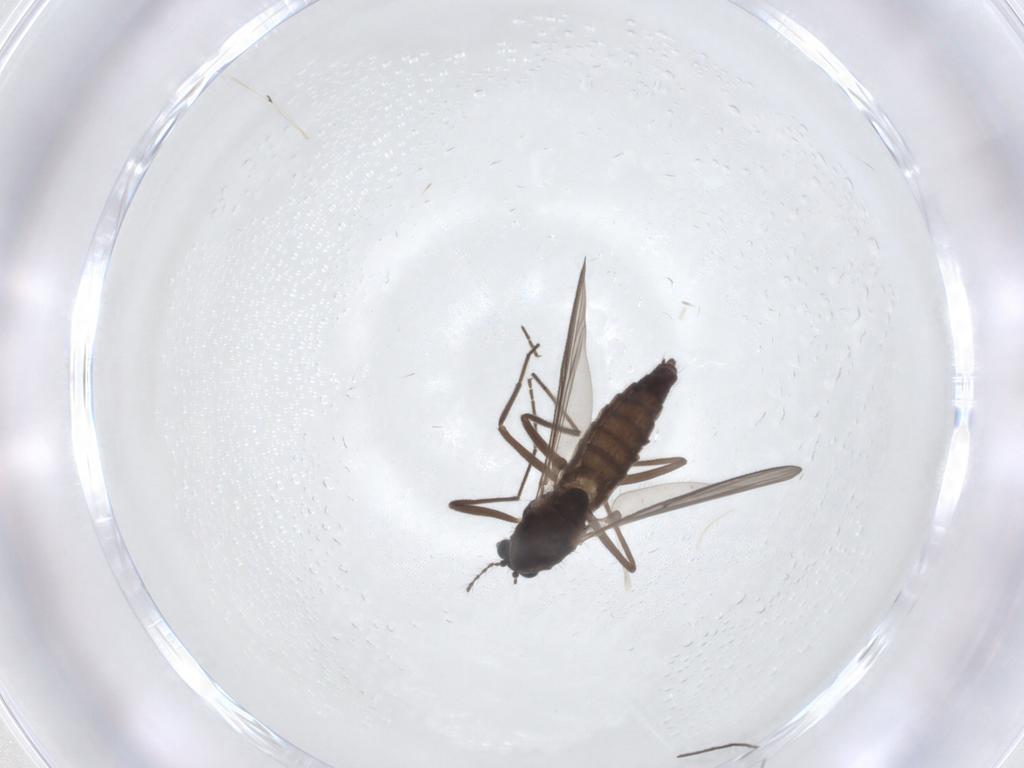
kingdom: Animalia
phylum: Arthropoda
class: Insecta
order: Diptera
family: Chironomidae
